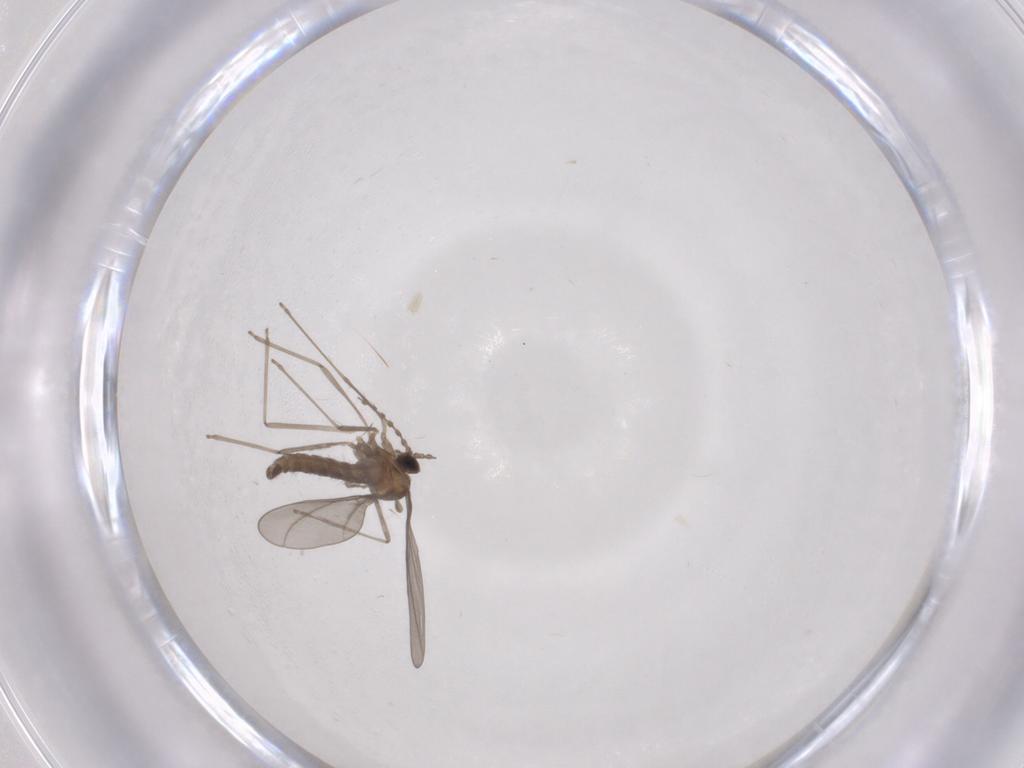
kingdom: Animalia
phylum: Arthropoda
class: Insecta
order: Diptera
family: Cecidomyiidae
